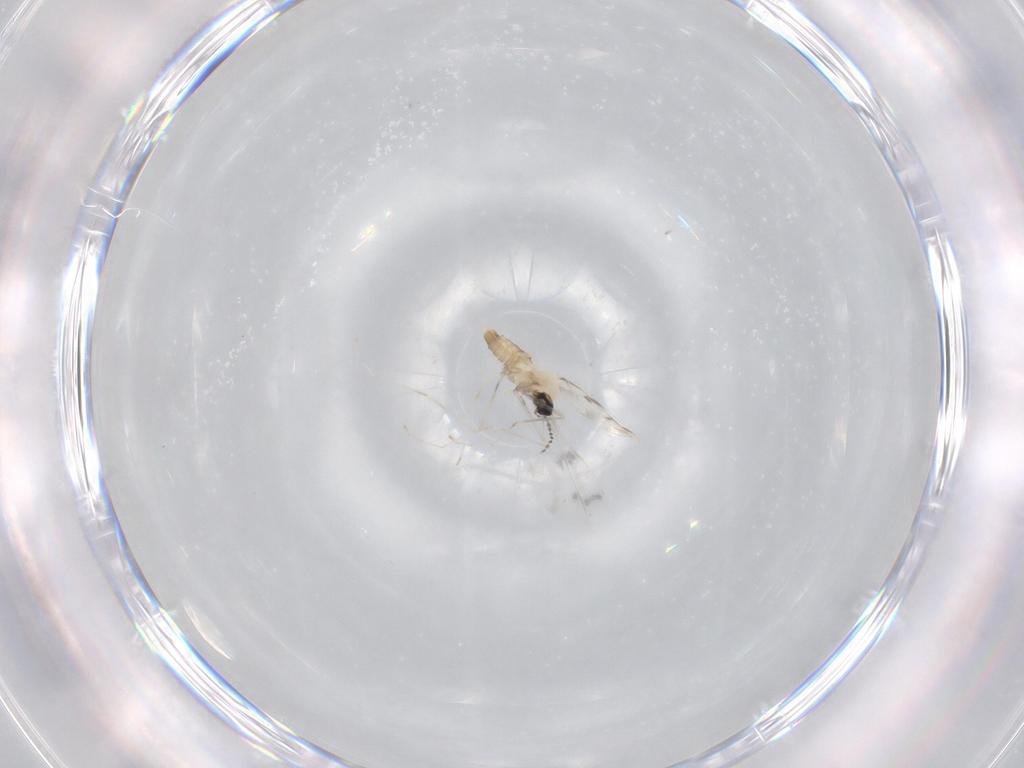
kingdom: Animalia
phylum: Arthropoda
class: Insecta
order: Diptera
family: Cecidomyiidae
